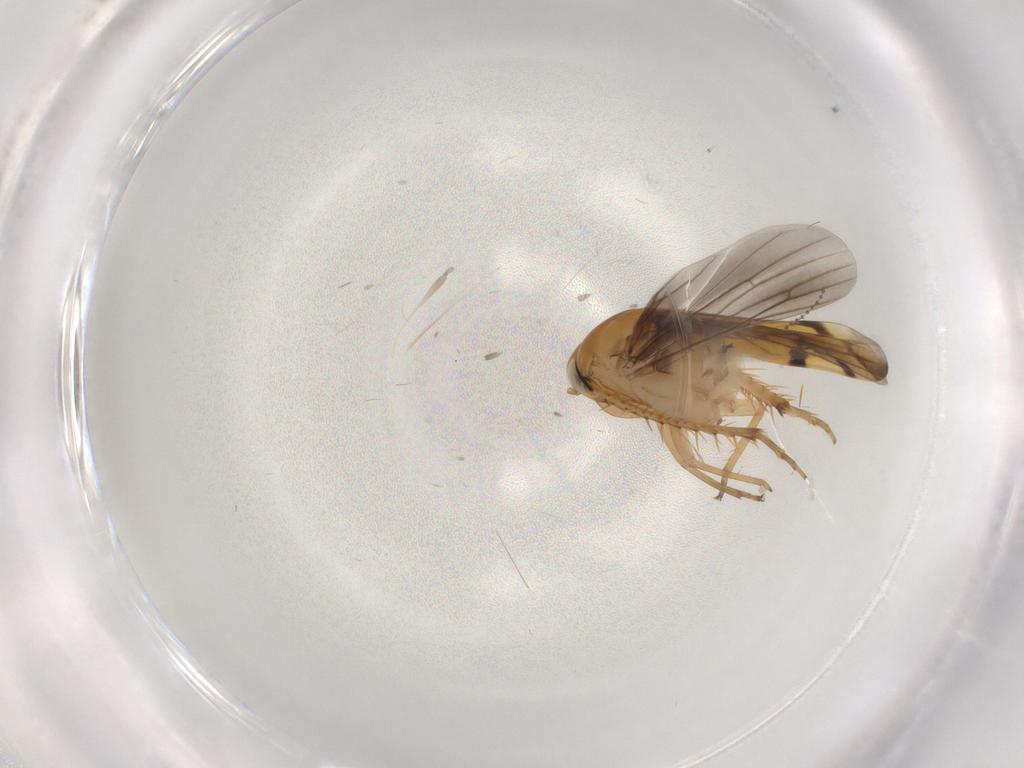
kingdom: Animalia
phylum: Arthropoda
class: Insecta
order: Hemiptera
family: Cicadellidae
